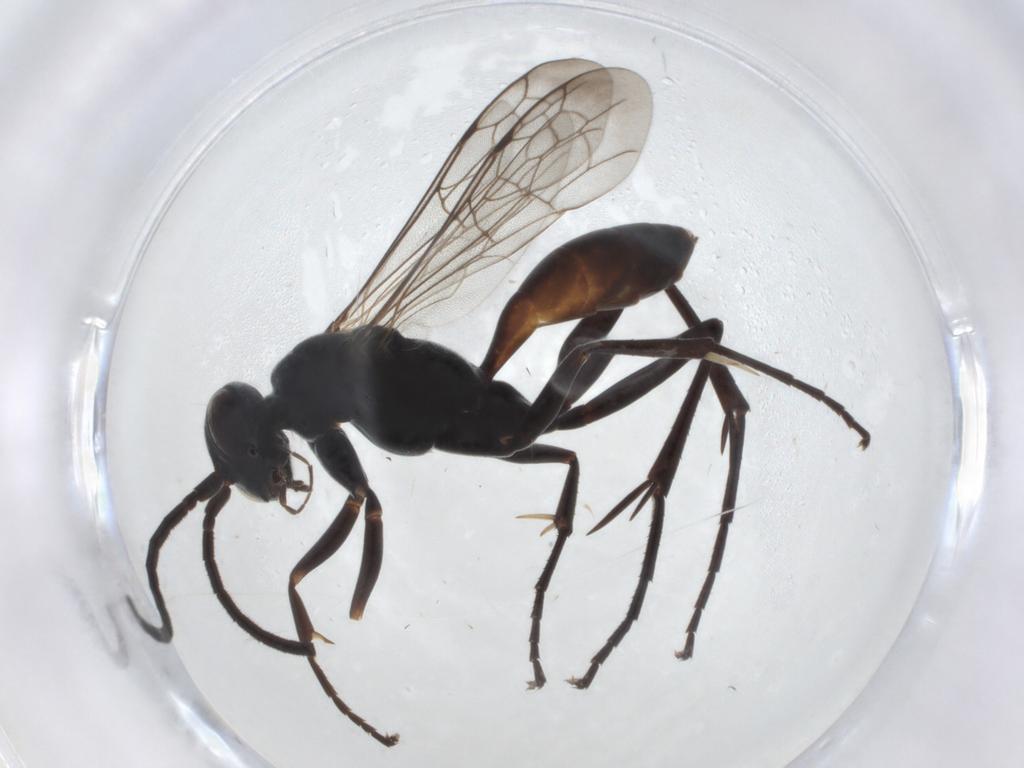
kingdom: Animalia
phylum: Arthropoda
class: Insecta
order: Hymenoptera
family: Pompilidae
